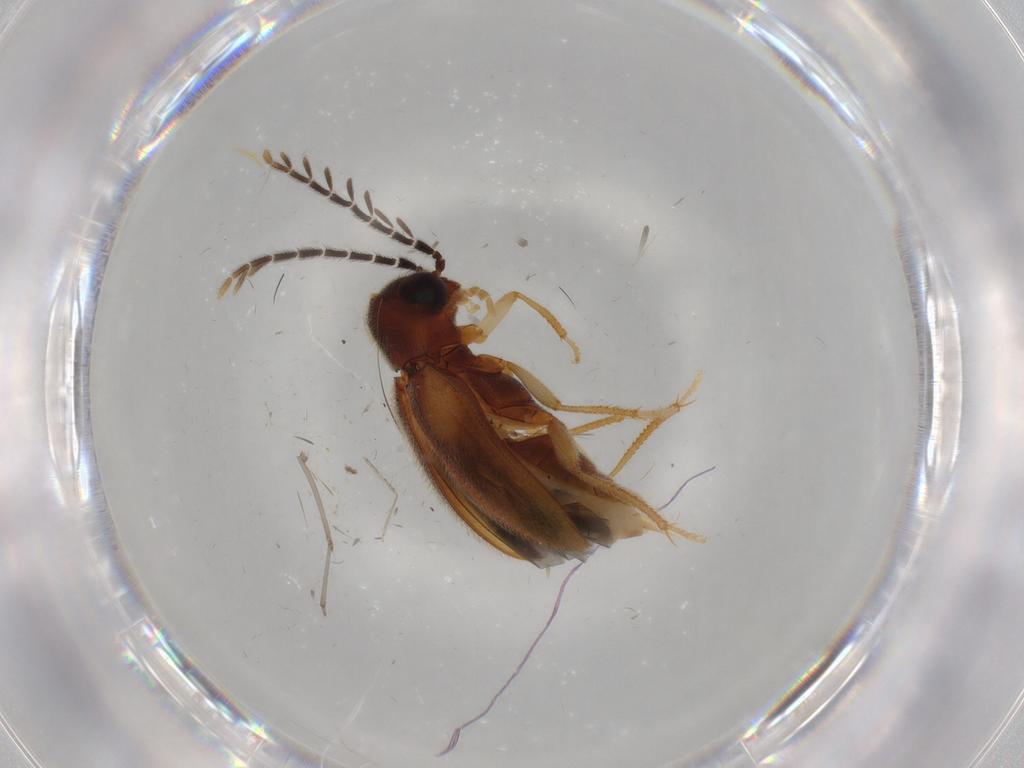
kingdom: Animalia
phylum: Arthropoda
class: Insecta
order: Coleoptera
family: Ptilodactylidae
